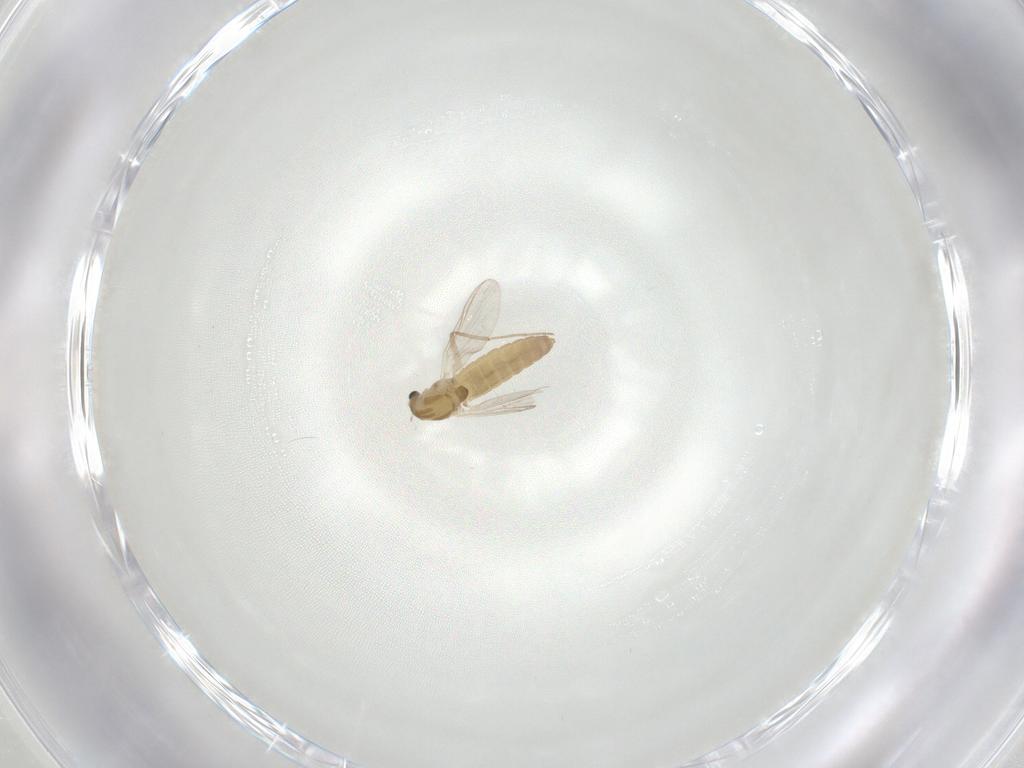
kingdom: Animalia
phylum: Arthropoda
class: Insecta
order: Diptera
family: Chironomidae
